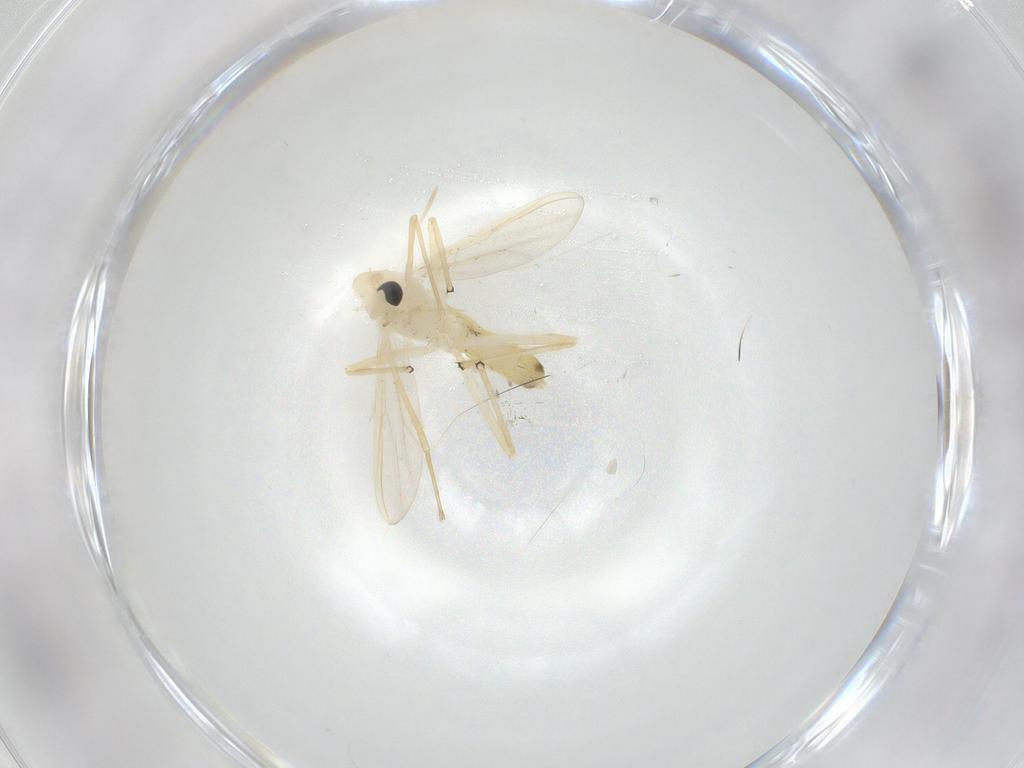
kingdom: Animalia
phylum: Arthropoda
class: Insecta
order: Diptera
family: Chironomidae
